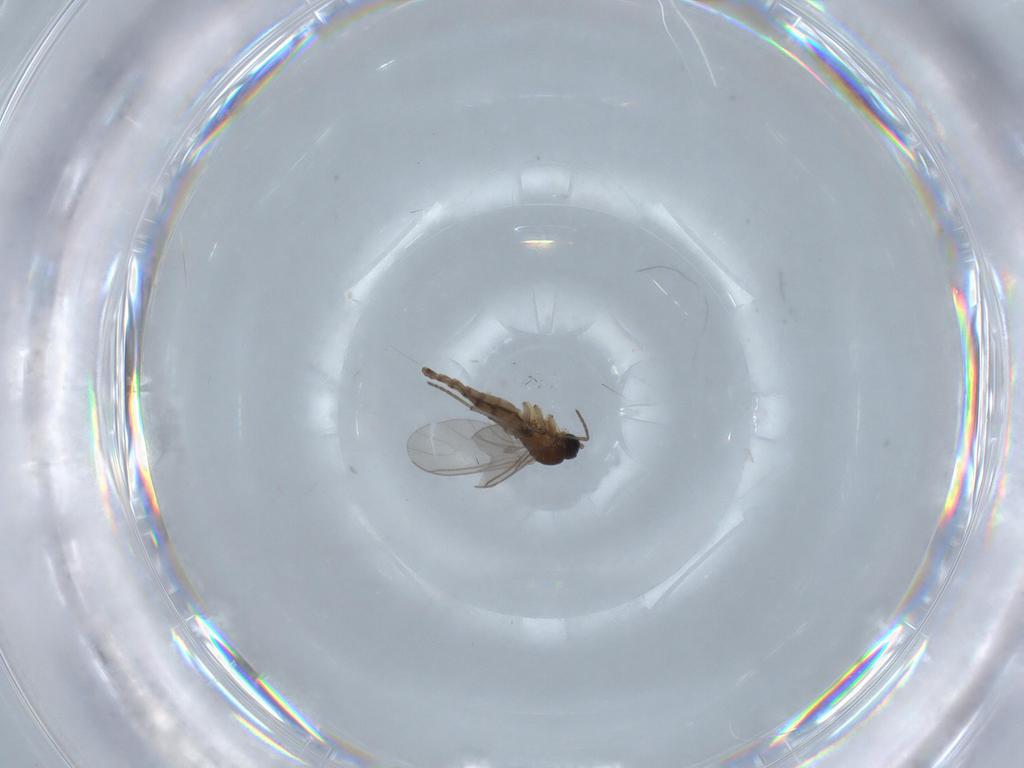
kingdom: Animalia
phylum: Arthropoda
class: Insecta
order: Diptera
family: Sciaridae
